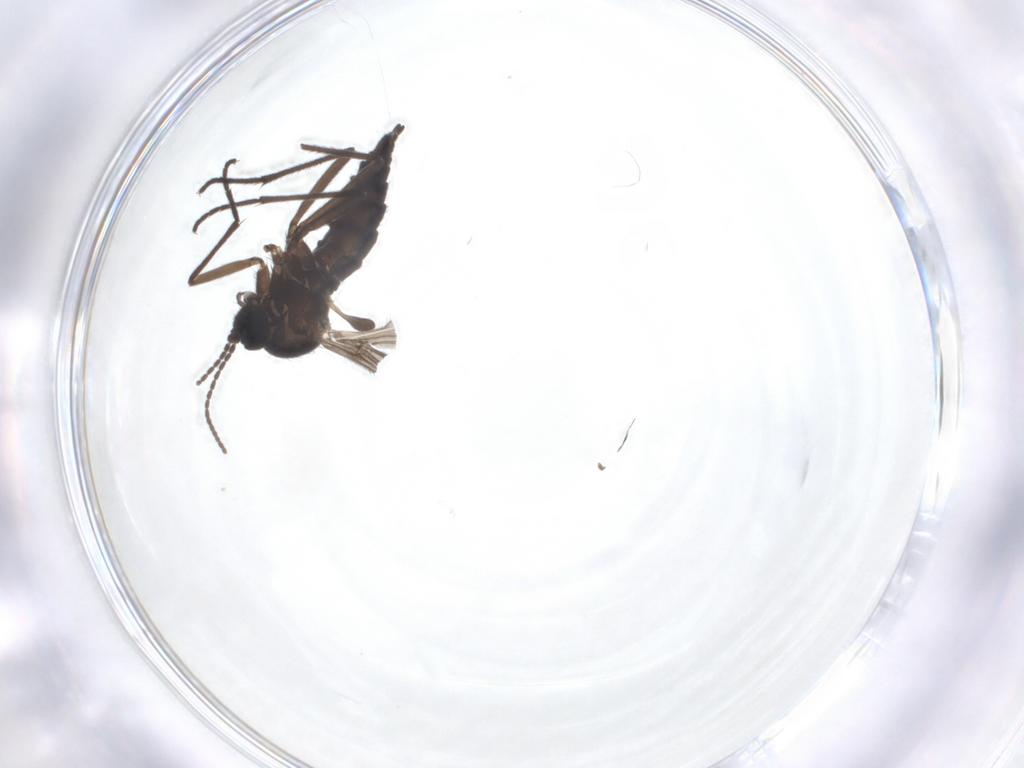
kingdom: Animalia
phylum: Arthropoda
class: Insecta
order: Diptera
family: Sciaridae
